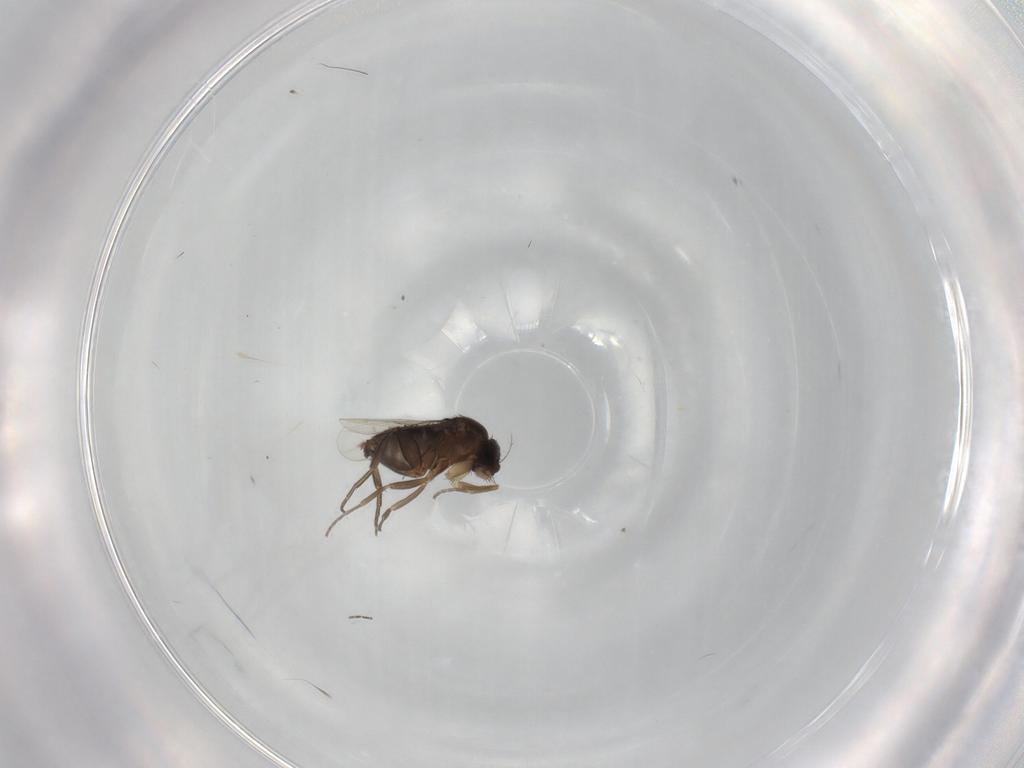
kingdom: Animalia
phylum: Arthropoda
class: Insecta
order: Diptera
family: Phoridae
